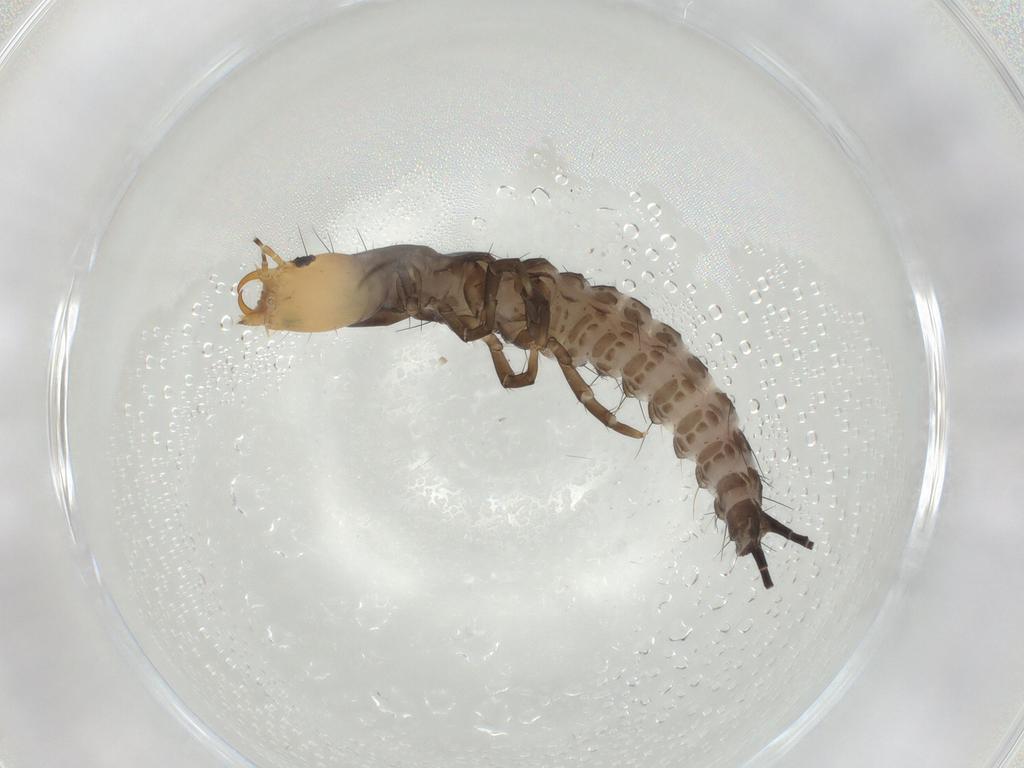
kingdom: Animalia
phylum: Arthropoda
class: Insecta
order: Coleoptera
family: Carabidae
